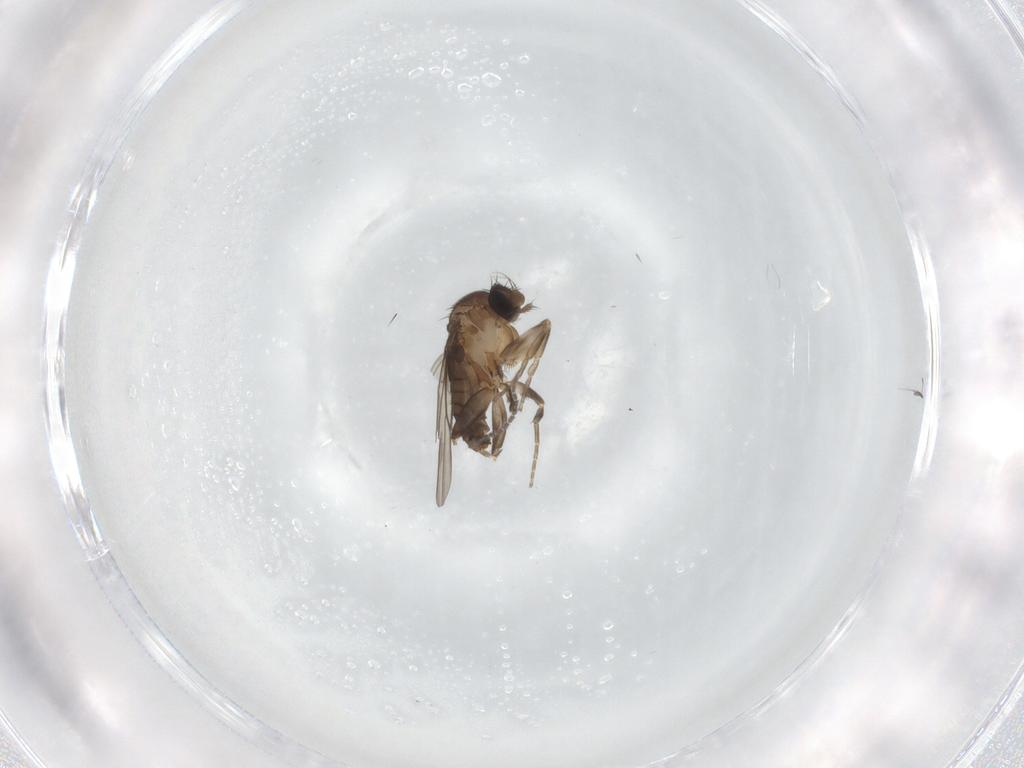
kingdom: Animalia
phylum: Arthropoda
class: Insecta
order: Diptera
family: Phoridae
